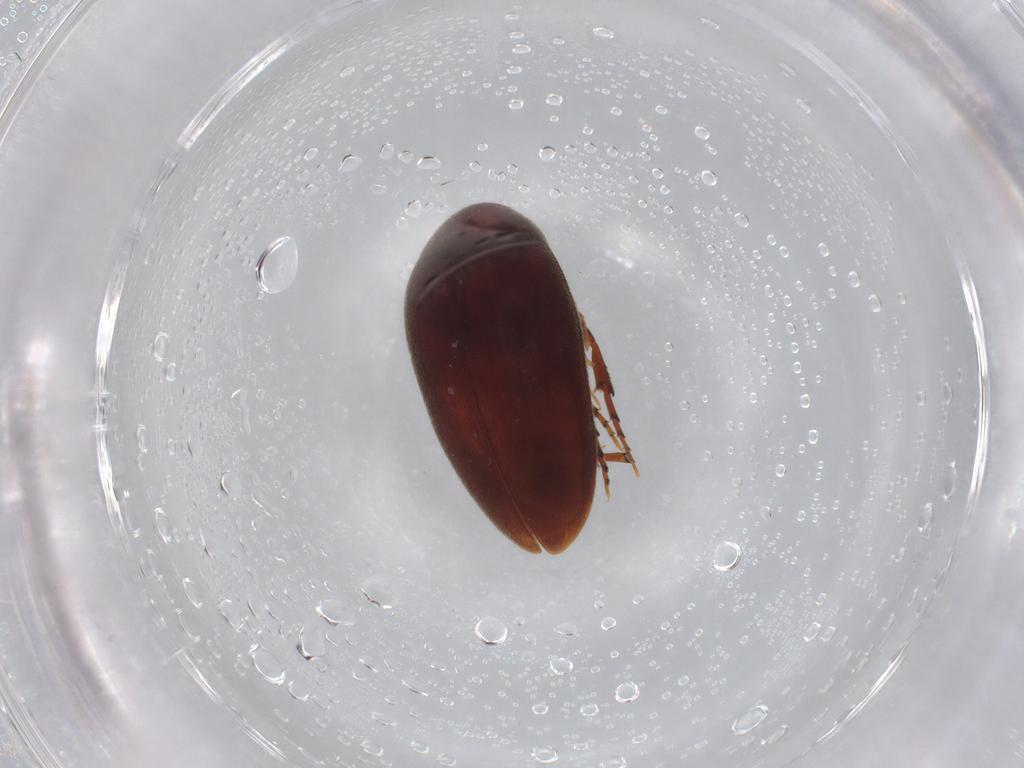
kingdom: Animalia
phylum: Arthropoda
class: Insecta
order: Coleoptera
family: Eucinetidae
